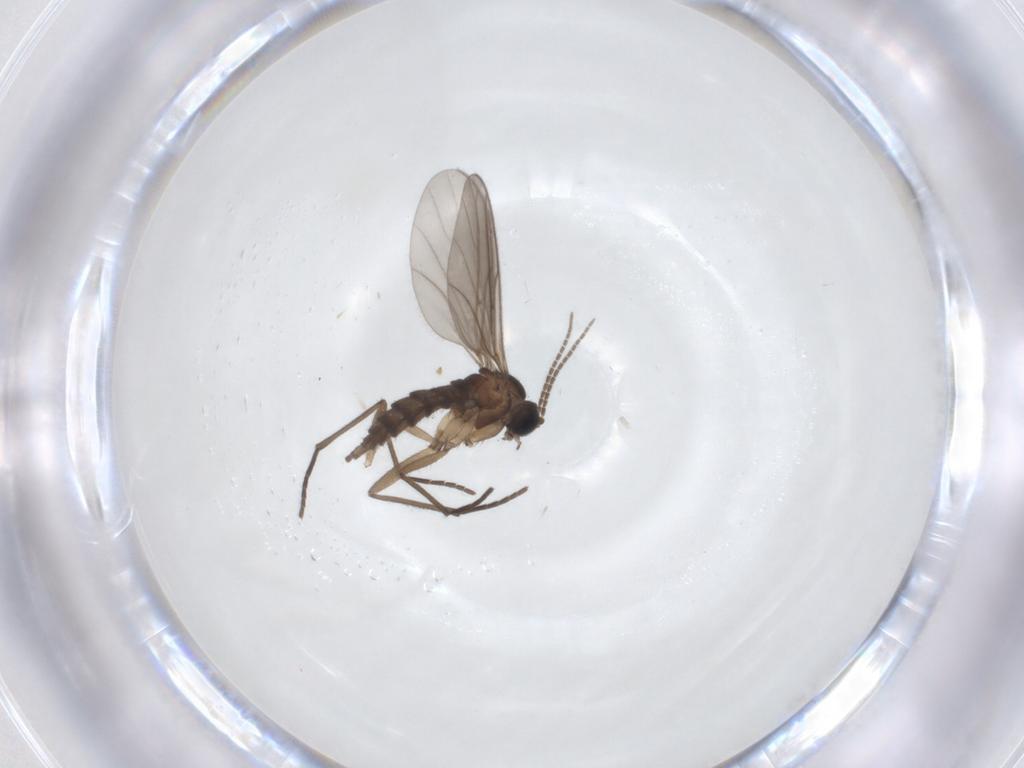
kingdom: Animalia
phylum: Arthropoda
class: Insecta
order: Diptera
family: Sciaridae
